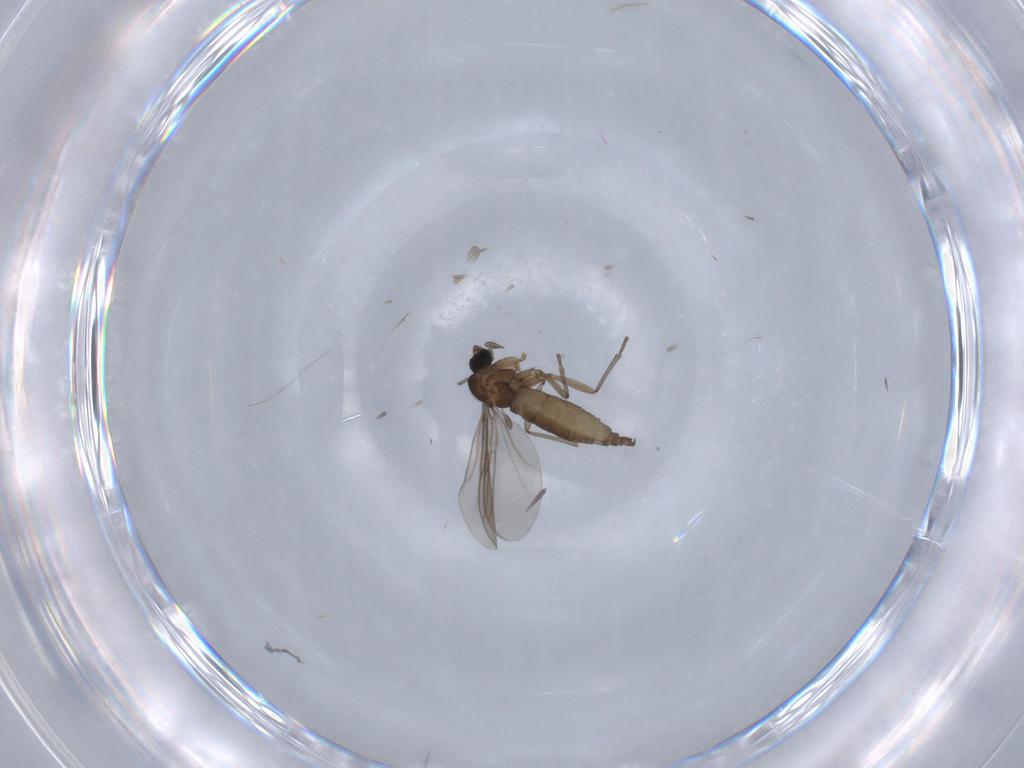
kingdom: Animalia
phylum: Arthropoda
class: Insecta
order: Diptera
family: Sciaridae
